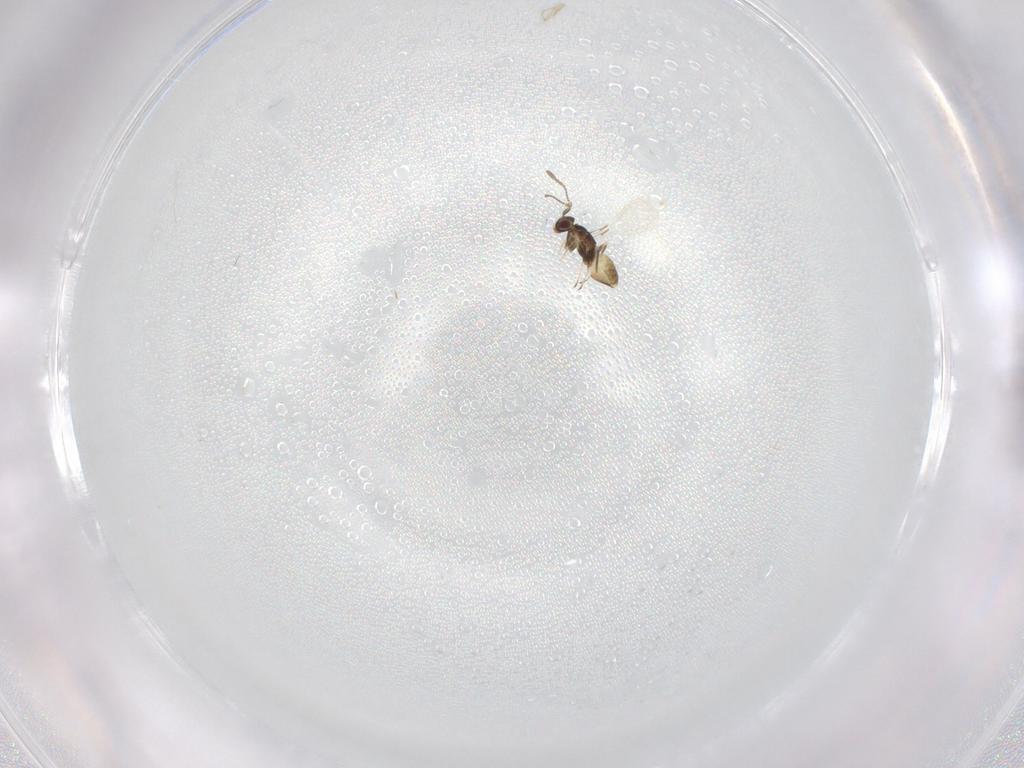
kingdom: Animalia
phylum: Arthropoda
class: Insecta
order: Hymenoptera
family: Mymaridae
